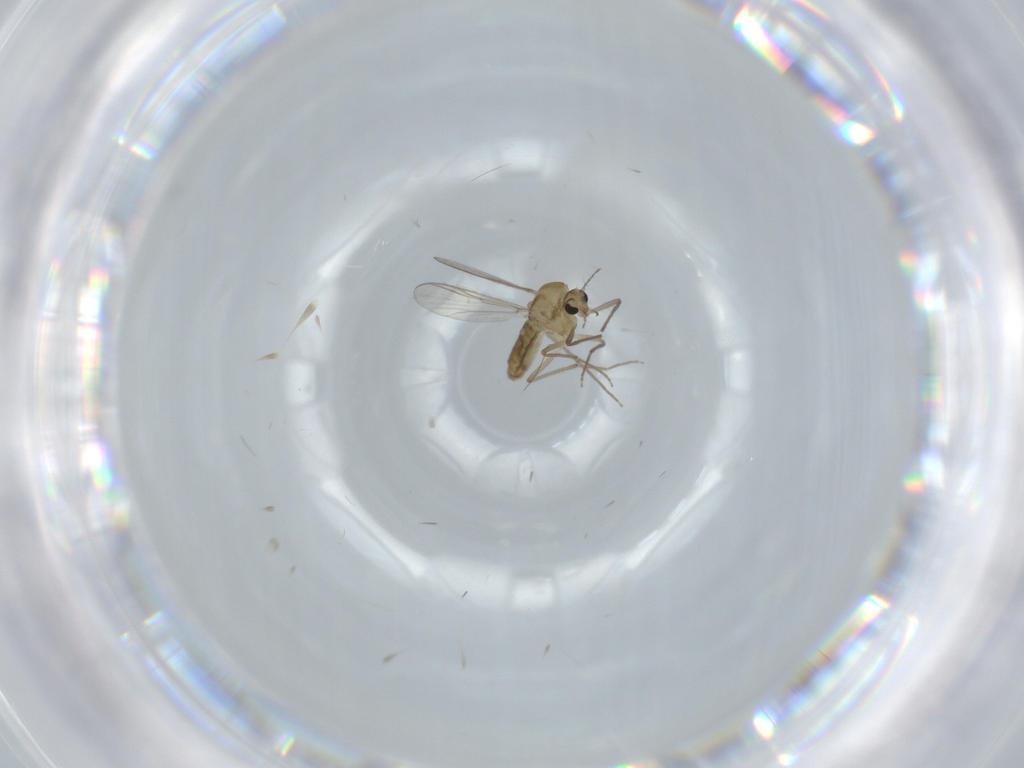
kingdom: Animalia
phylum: Arthropoda
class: Insecta
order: Diptera
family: Chironomidae
